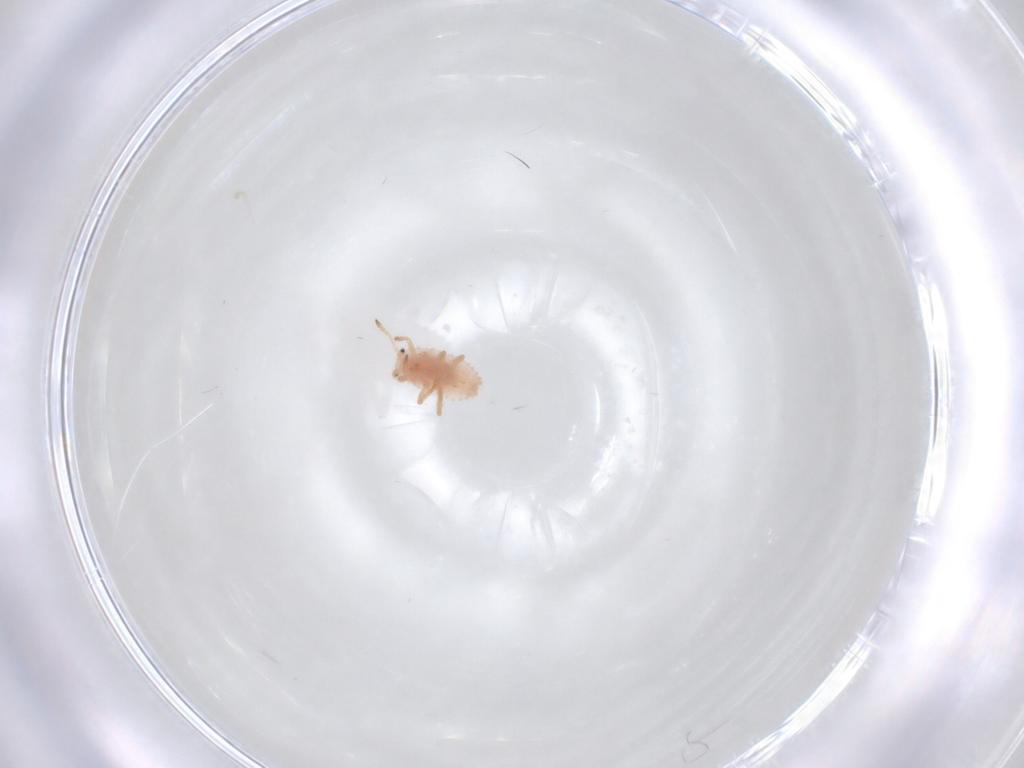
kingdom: Animalia
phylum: Arthropoda
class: Insecta
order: Hemiptera
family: Coccoidea_incertae_sedis
